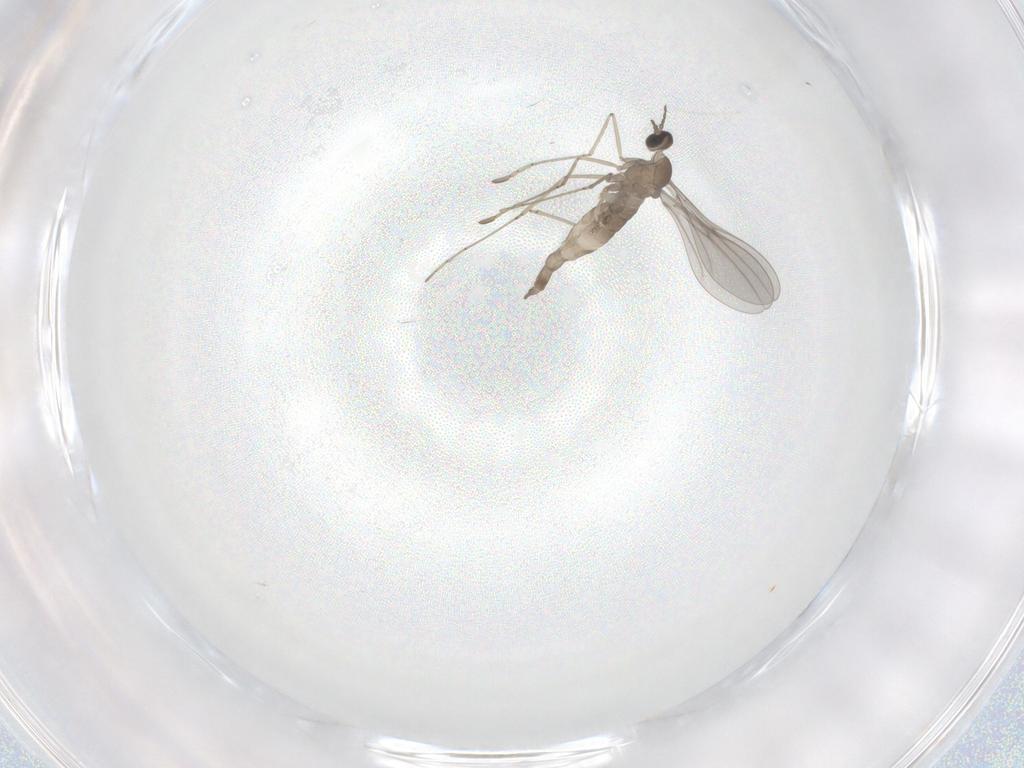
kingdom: Animalia
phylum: Arthropoda
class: Insecta
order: Diptera
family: Cecidomyiidae
